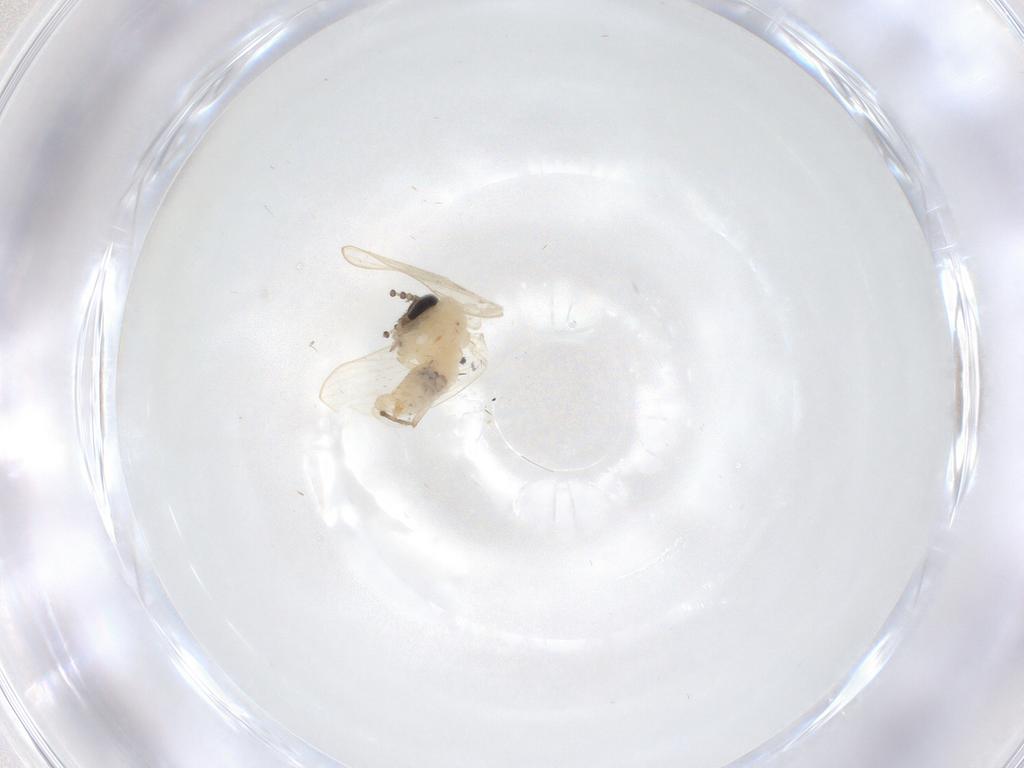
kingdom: Animalia
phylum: Arthropoda
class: Insecta
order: Diptera
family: Psychodidae
